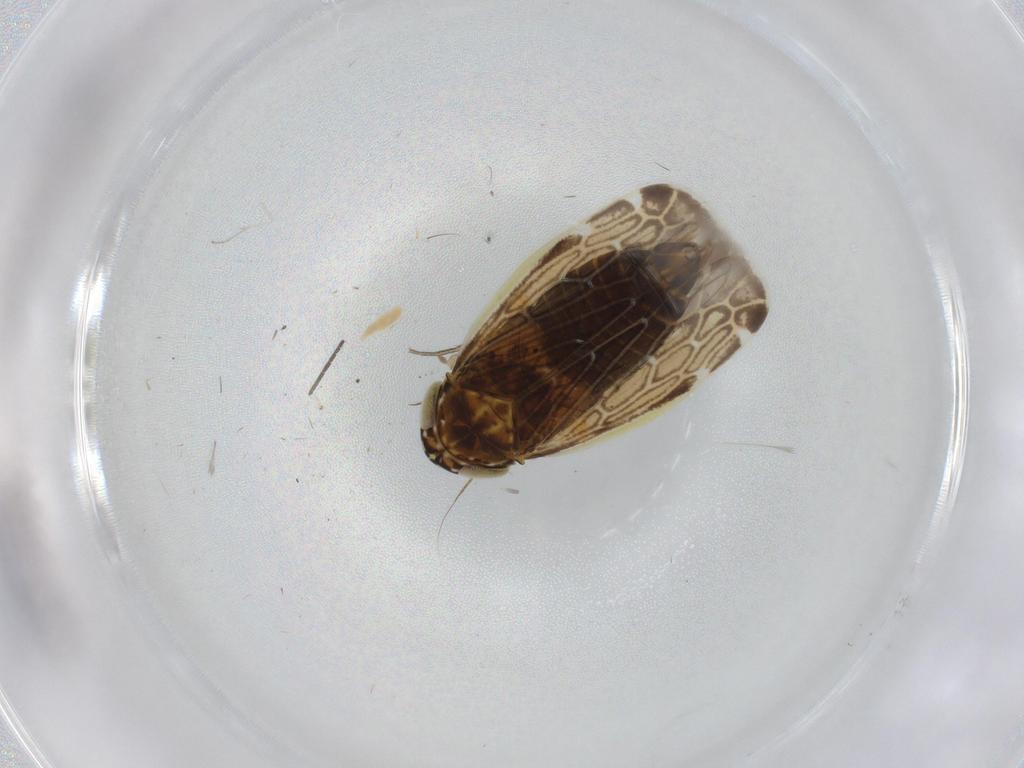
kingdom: Animalia
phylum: Arthropoda
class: Insecta
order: Hemiptera
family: Cicadellidae
